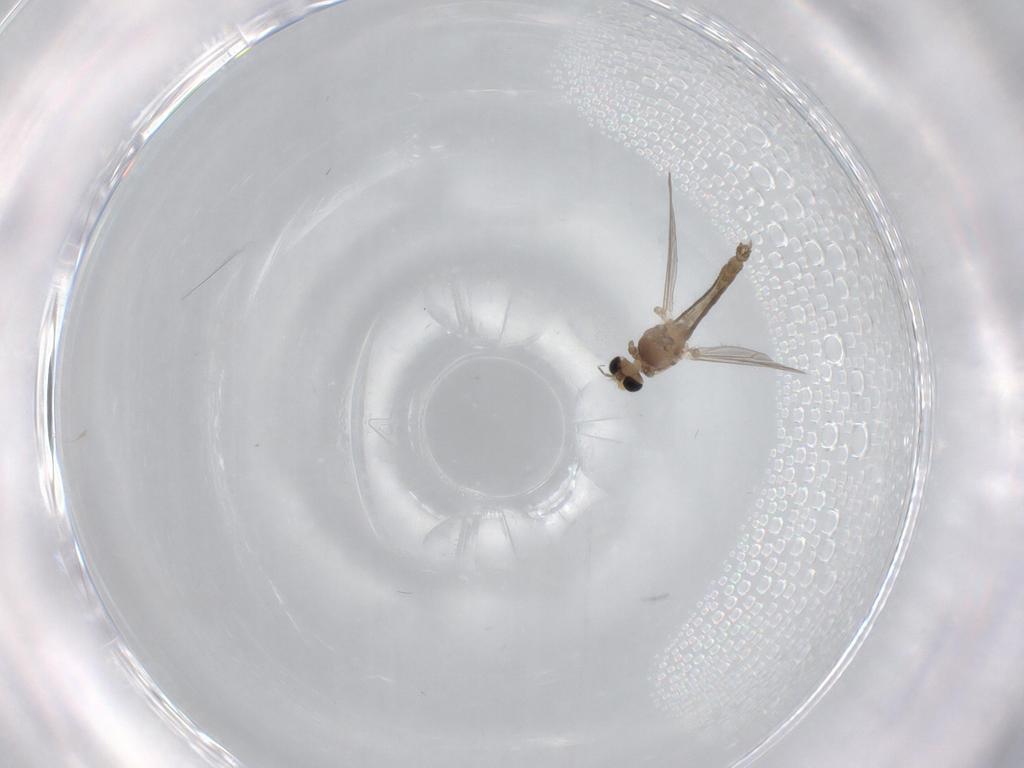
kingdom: Animalia
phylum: Arthropoda
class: Insecta
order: Diptera
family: Chironomidae
